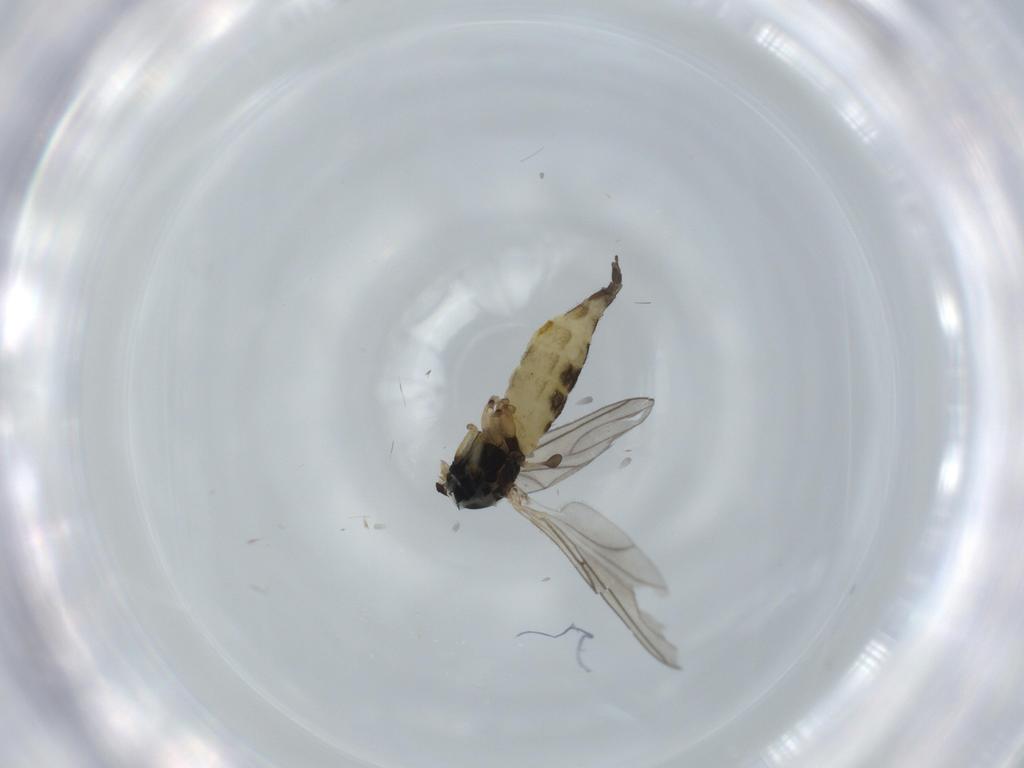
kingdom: Animalia
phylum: Arthropoda
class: Insecta
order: Diptera
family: Sciaridae
